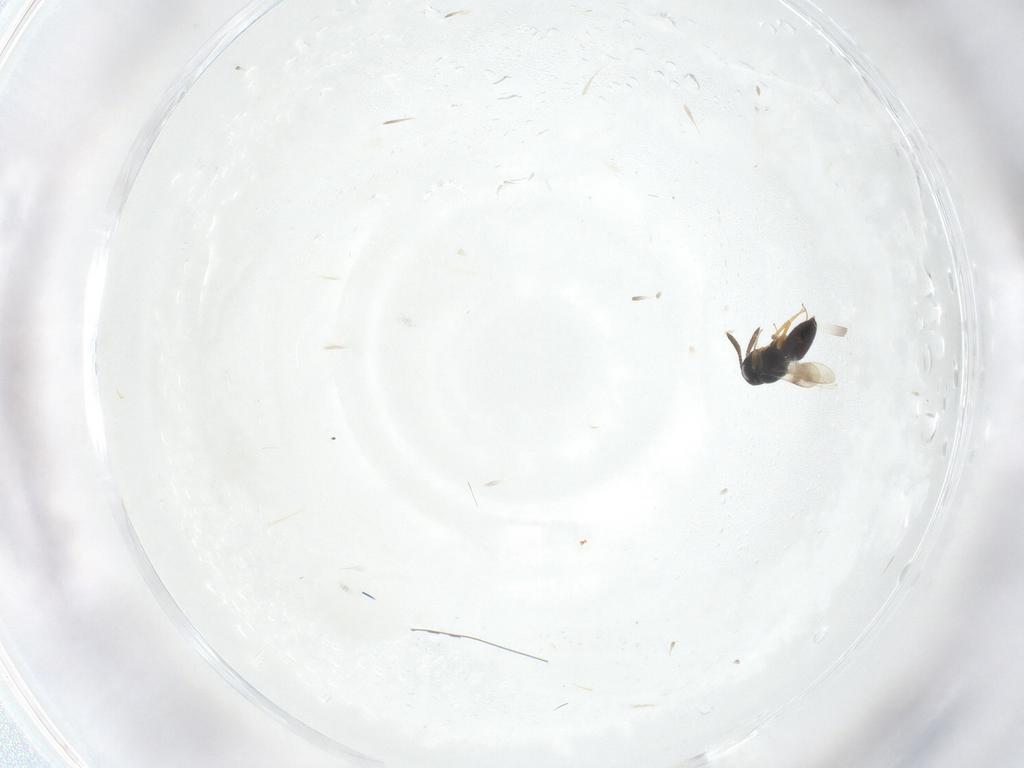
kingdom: Animalia
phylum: Arthropoda
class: Insecta
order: Hymenoptera
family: Scelionidae
